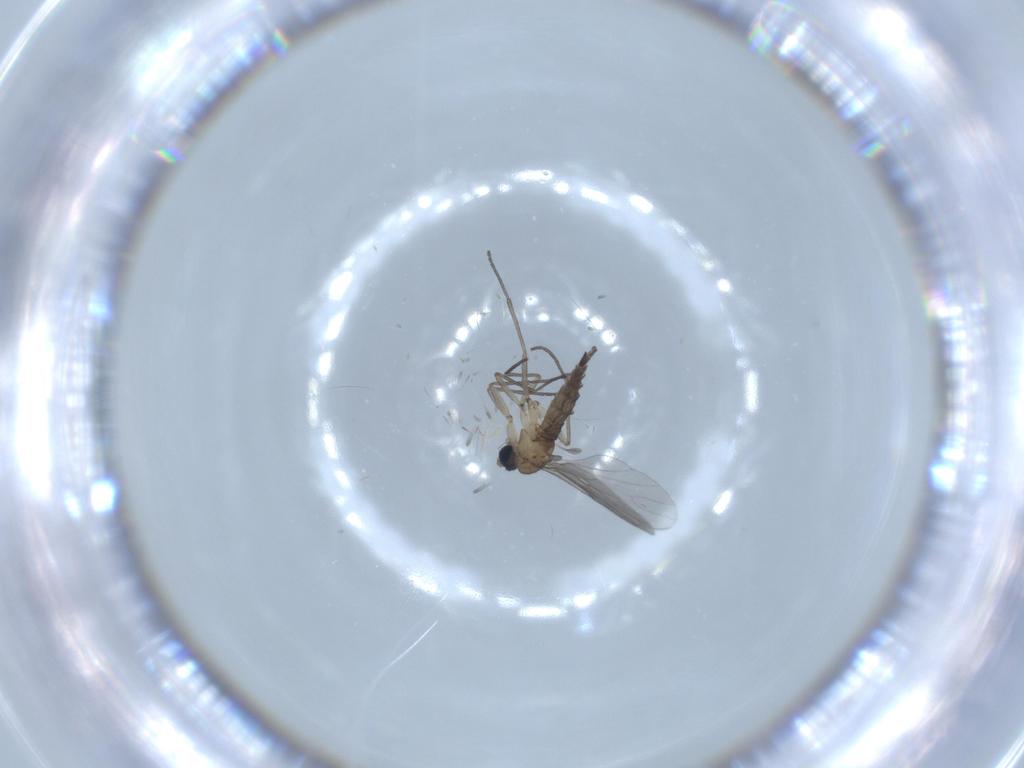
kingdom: Animalia
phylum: Arthropoda
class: Insecta
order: Diptera
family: Sciaridae
